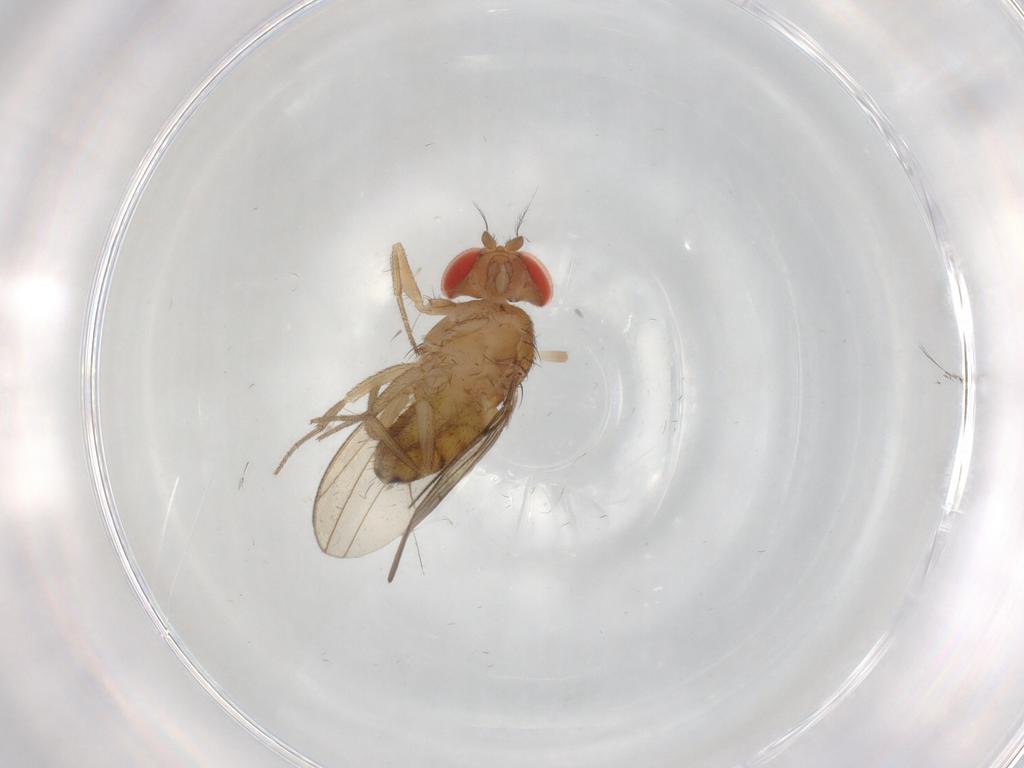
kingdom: Animalia
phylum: Arthropoda
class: Insecta
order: Diptera
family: Drosophilidae
